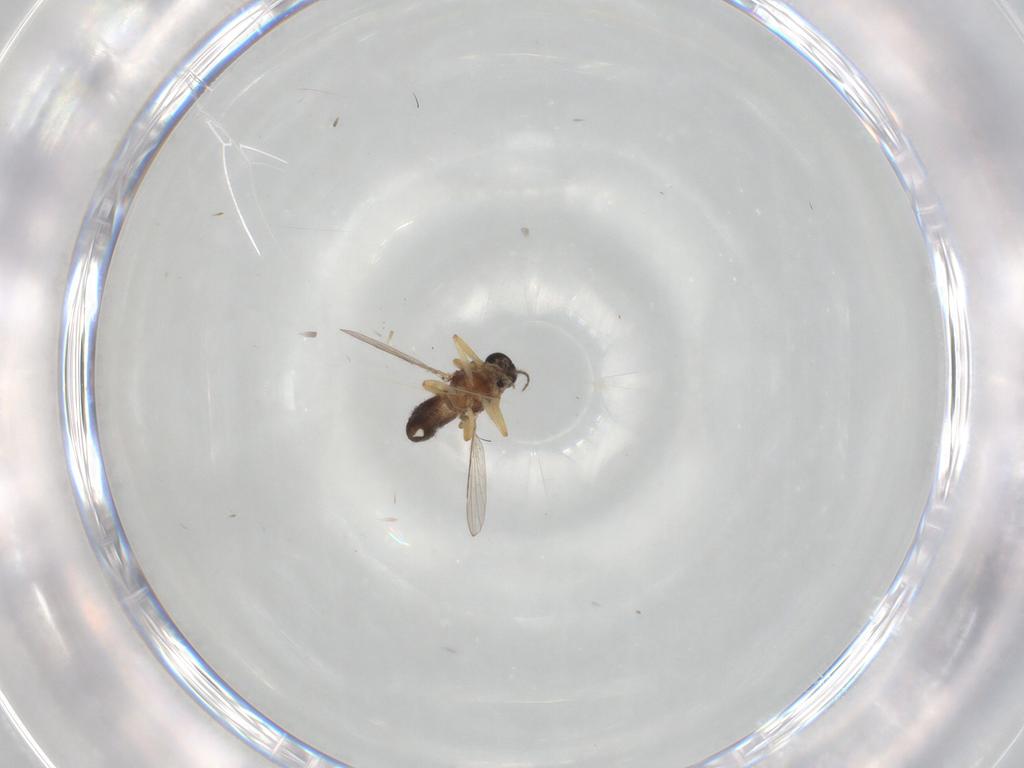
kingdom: Animalia
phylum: Arthropoda
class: Insecta
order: Diptera
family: Ceratopogonidae
